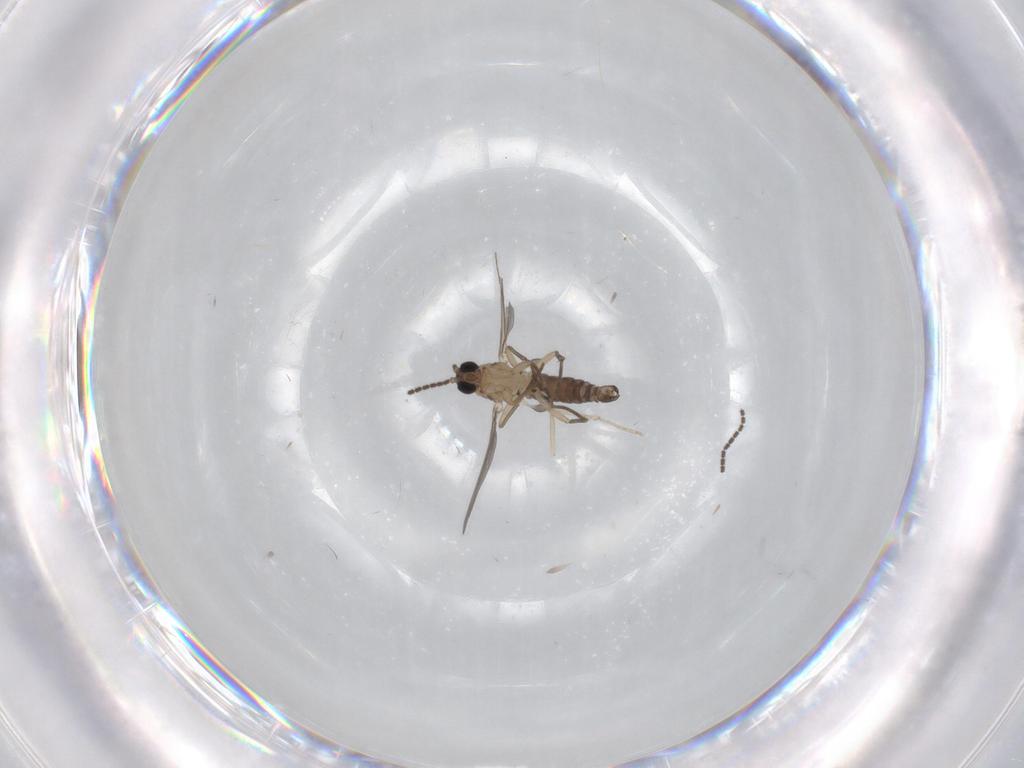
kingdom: Animalia
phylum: Arthropoda
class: Insecta
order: Diptera
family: Sciaridae
